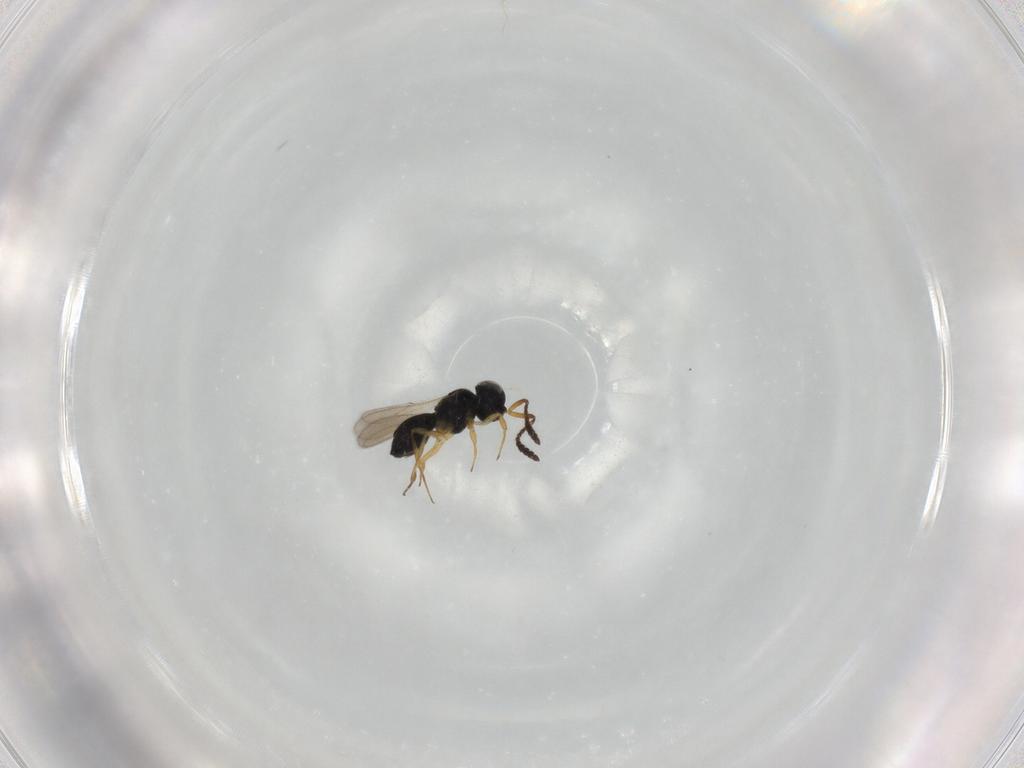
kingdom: Animalia
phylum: Arthropoda
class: Insecta
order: Hymenoptera
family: Scelionidae
